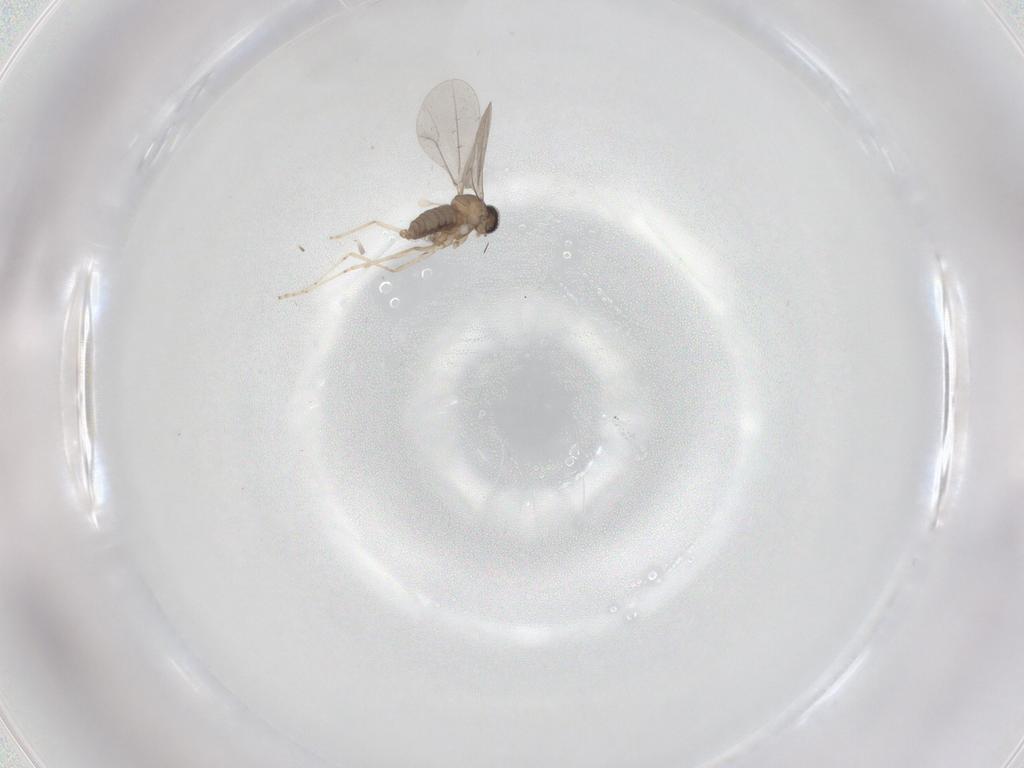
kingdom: Animalia
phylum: Arthropoda
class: Insecta
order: Diptera
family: Cecidomyiidae
